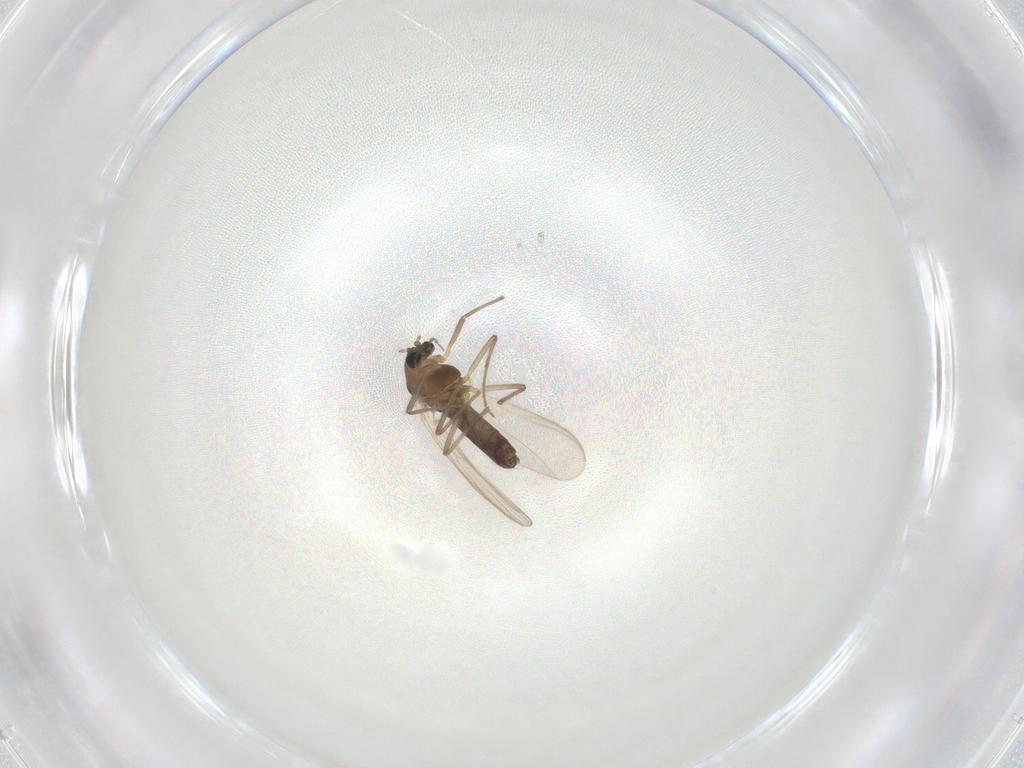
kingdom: Animalia
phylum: Arthropoda
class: Insecta
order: Diptera
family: Chironomidae
